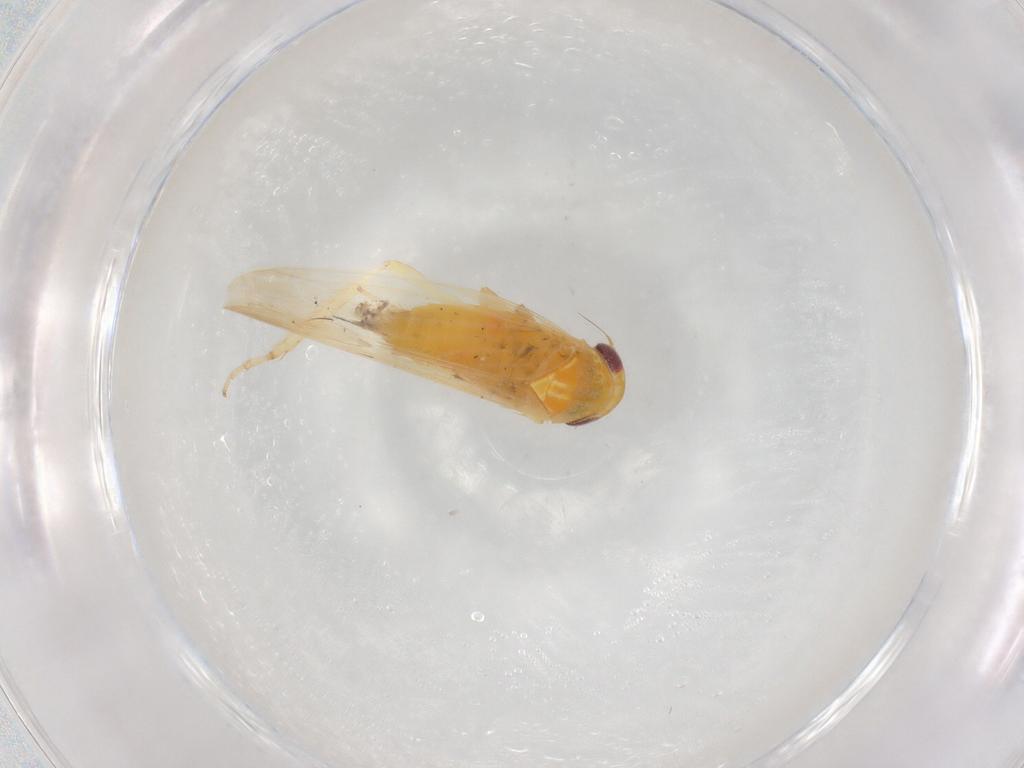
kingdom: Animalia
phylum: Arthropoda
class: Insecta
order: Hemiptera
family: Cicadellidae
